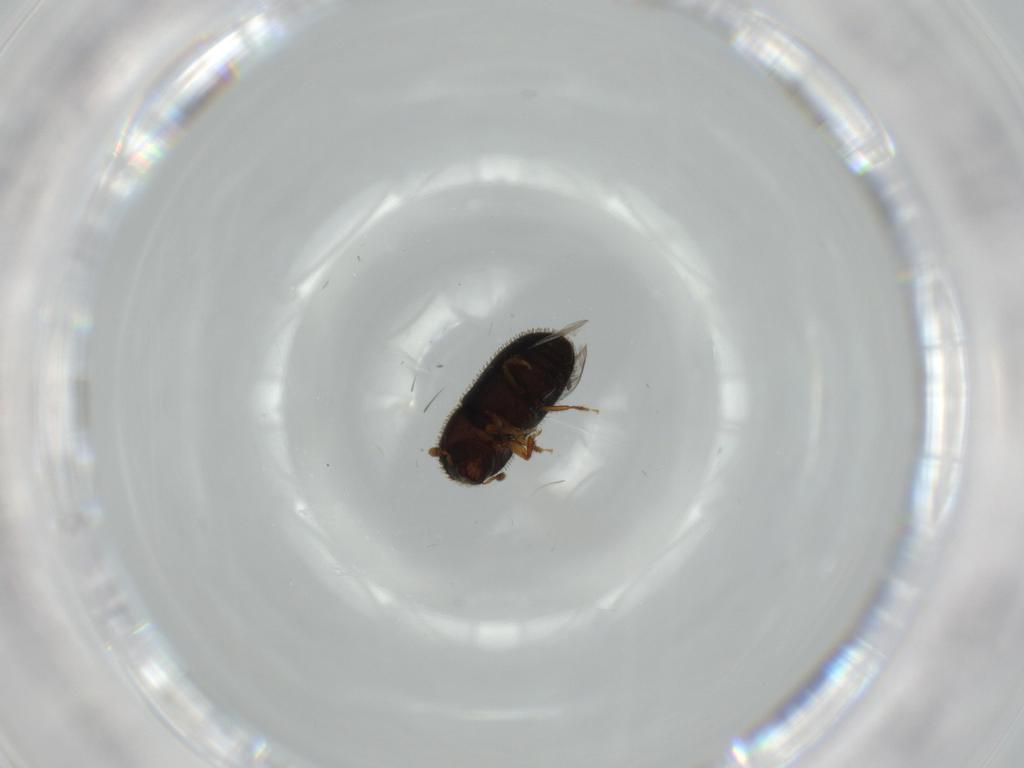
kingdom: Animalia
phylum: Arthropoda
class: Insecta
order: Coleoptera
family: Curculionidae
